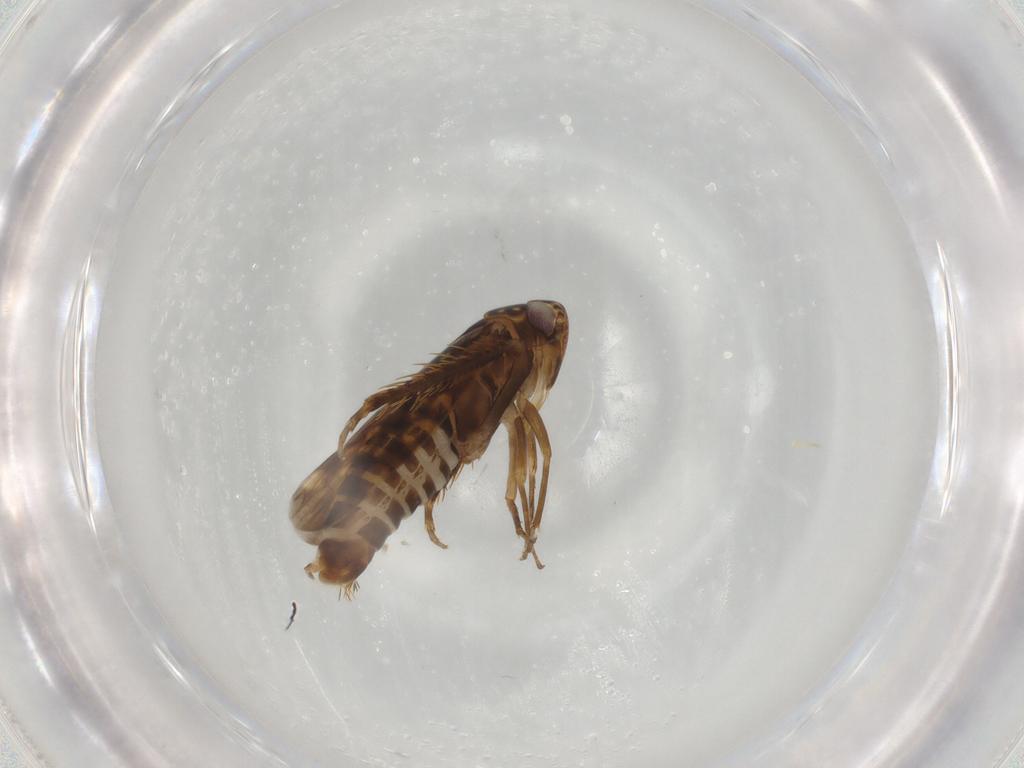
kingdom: Animalia
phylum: Arthropoda
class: Insecta
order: Hemiptera
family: Cicadellidae
